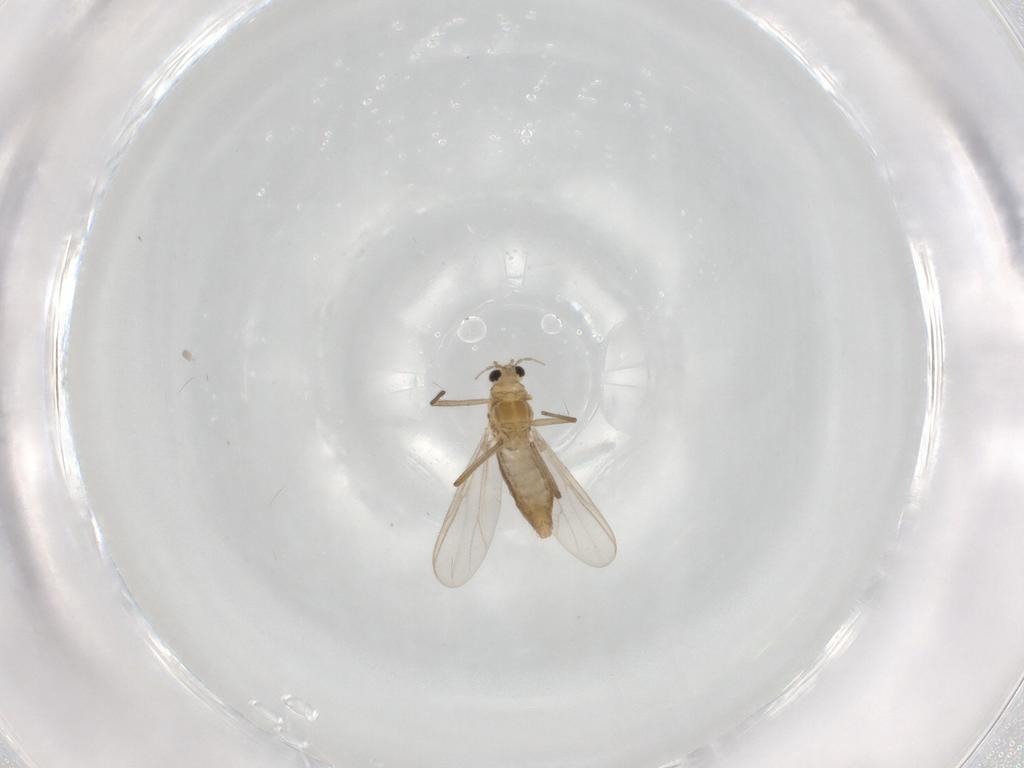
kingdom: Animalia
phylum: Arthropoda
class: Insecta
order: Diptera
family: Chironomidae
